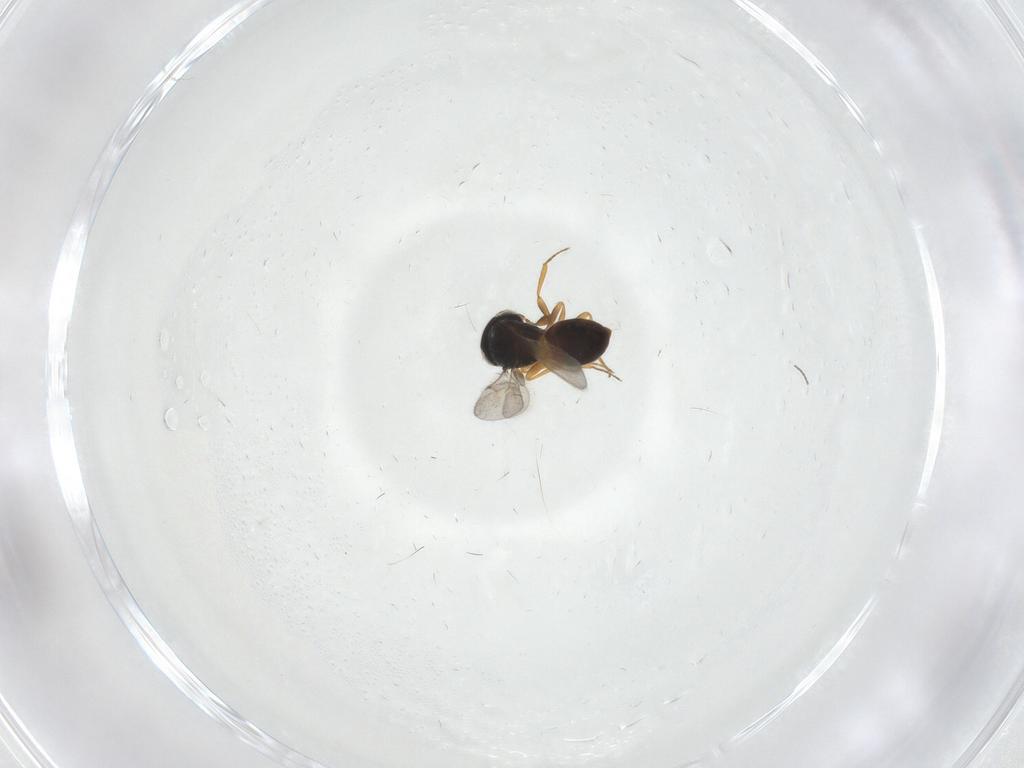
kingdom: Animalia
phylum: Arthropoda
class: Insecta
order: Hymenoptera
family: Scelionidae
